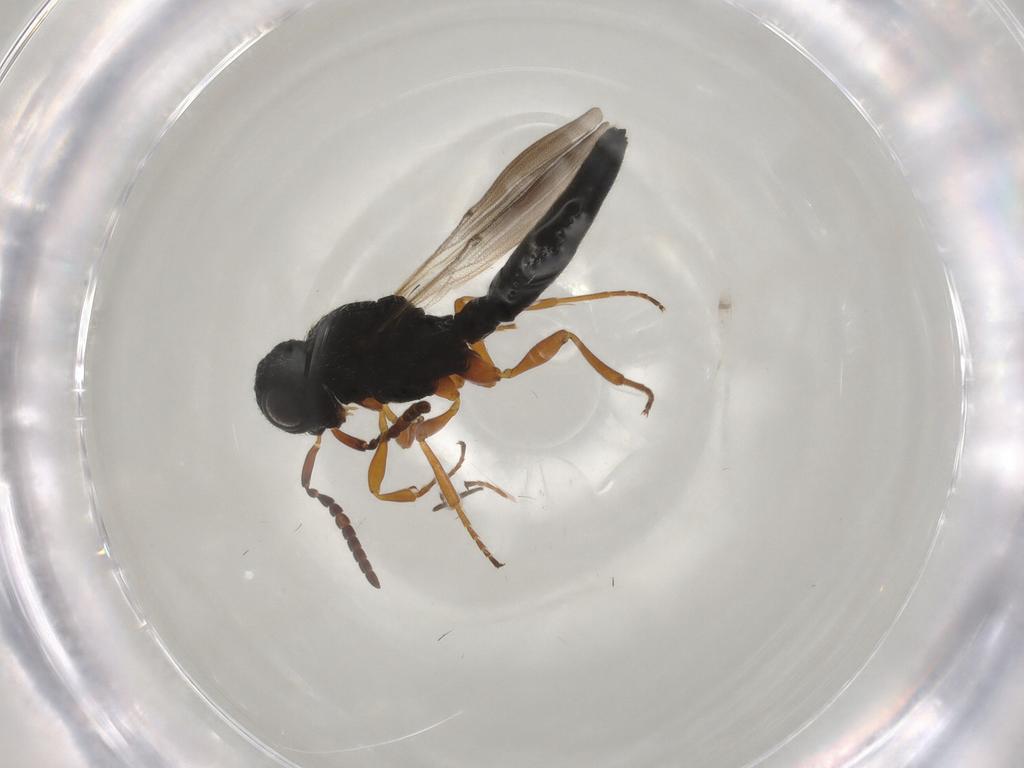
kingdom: Animalia
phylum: Arthropoda
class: Insecta
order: Hymenoptera
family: Scelionidae
